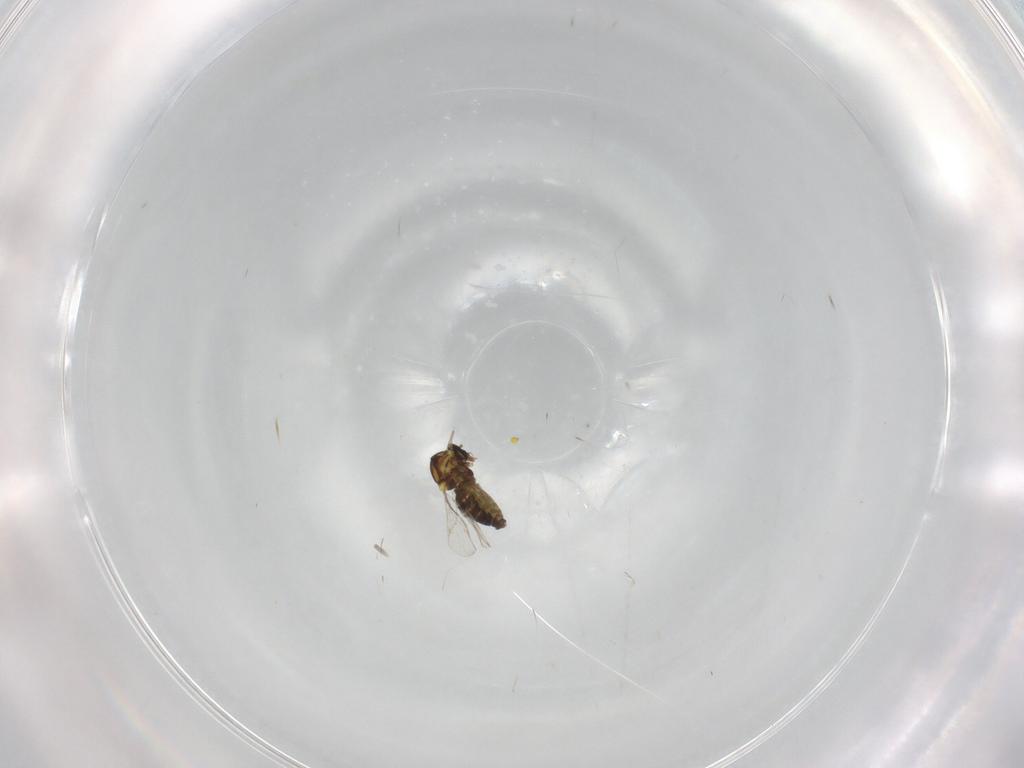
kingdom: Animalia
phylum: Arthropoda
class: Insecta
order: Diptera
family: Ceratopogonidae
